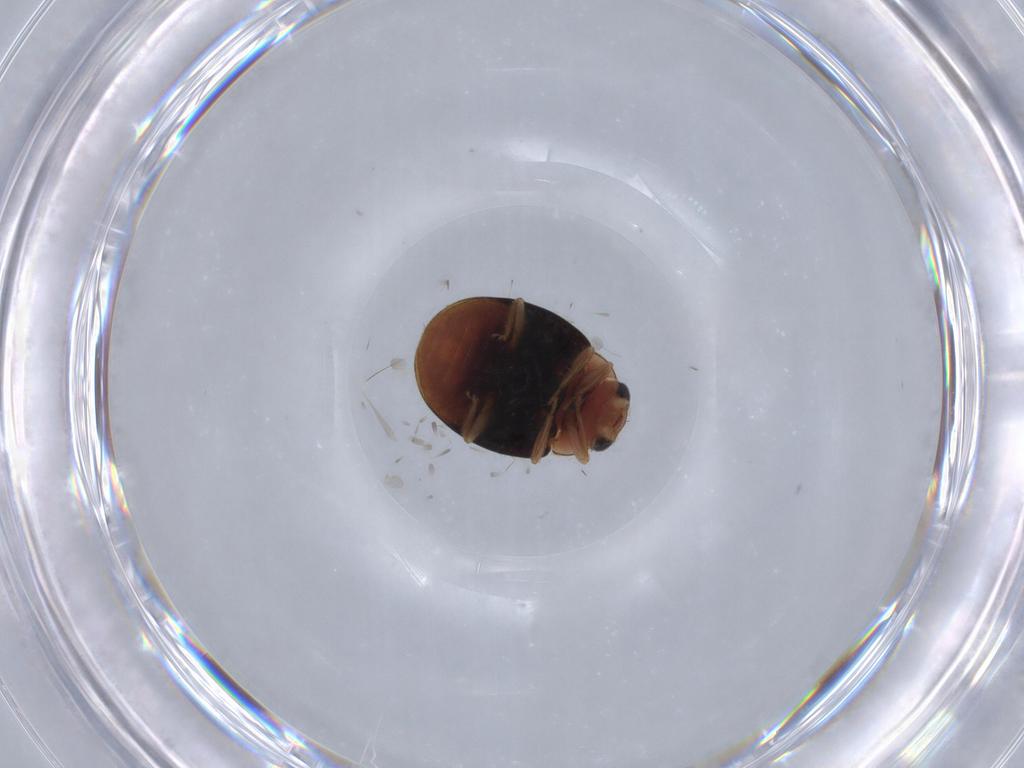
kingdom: Animalia
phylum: Arthropoda
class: Insecta
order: Coleoptera
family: Coccinellidae
